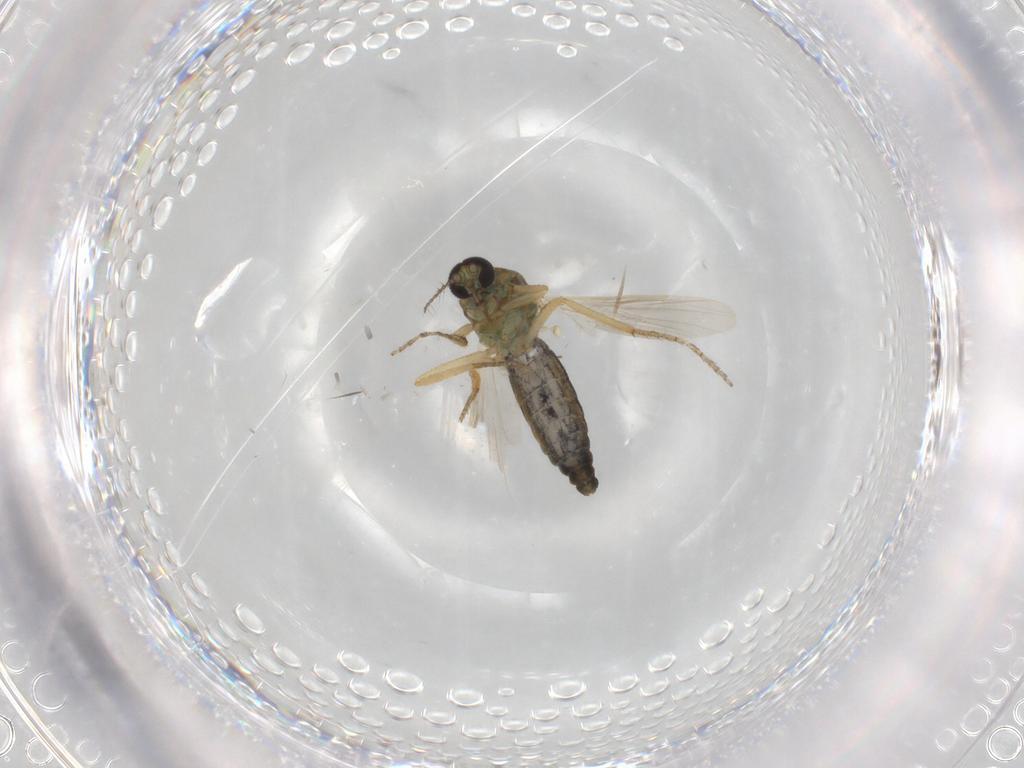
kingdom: Animalia
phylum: Arthropoda
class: Insecta
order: Diptera
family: Ceratopogonidae
